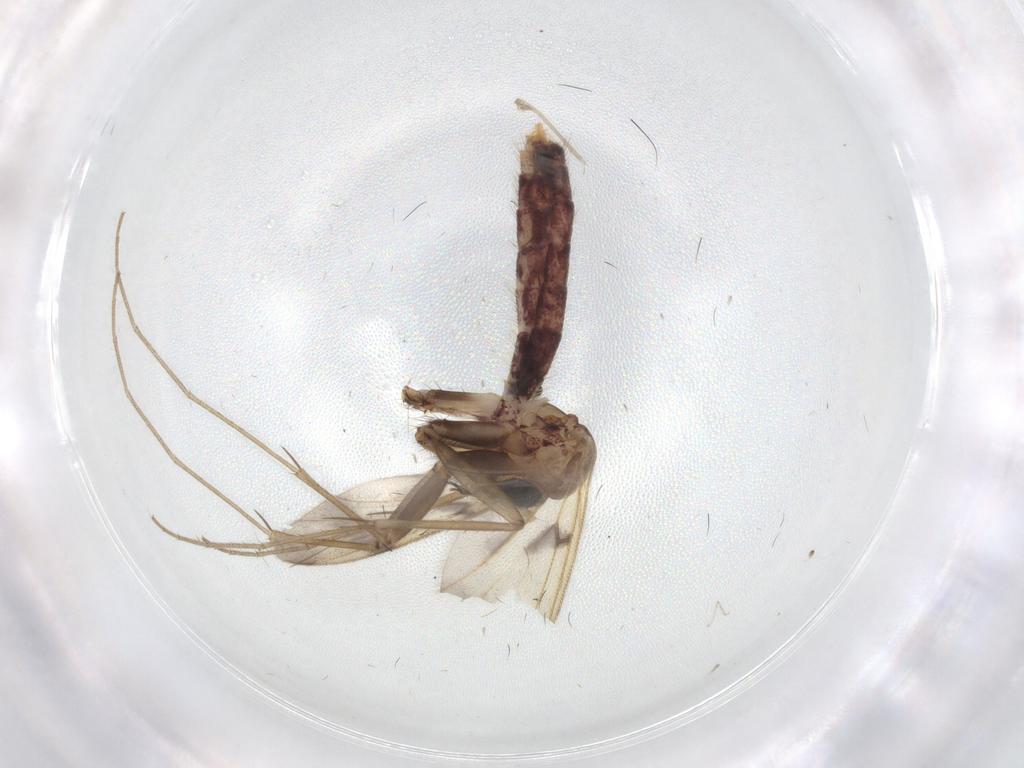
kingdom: Animalia
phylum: Arthropoda
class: Insecta
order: Diptera
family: Mycetophilidae
